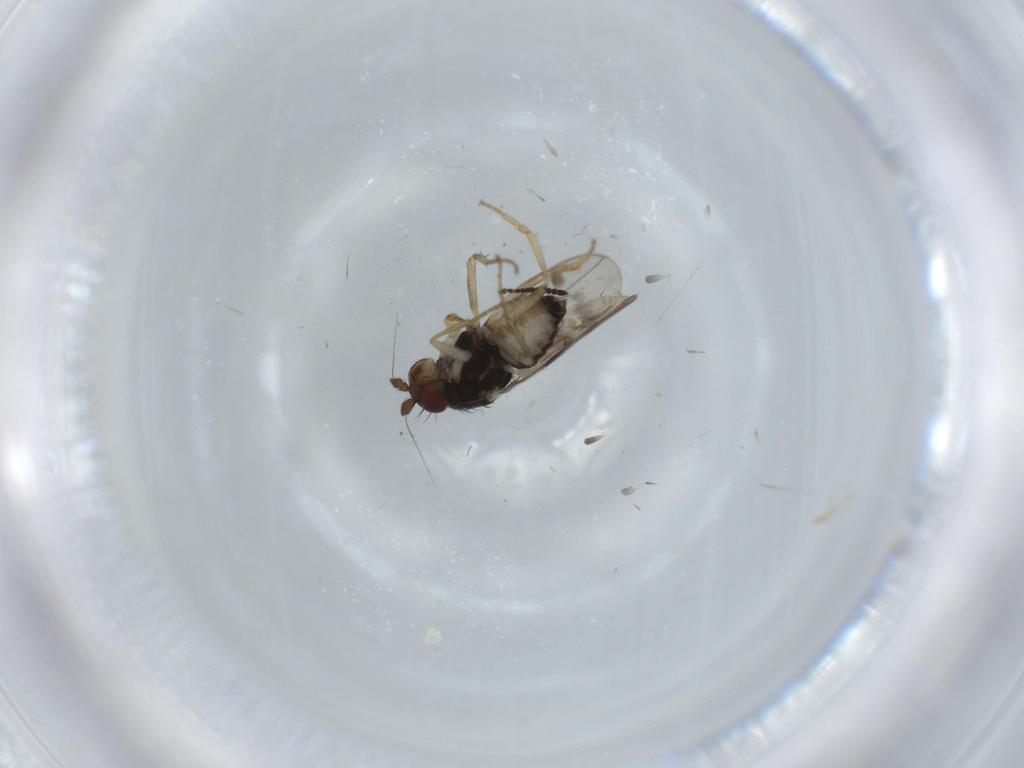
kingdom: Animalia
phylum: Arthropoda
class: Insecta
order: Diptera
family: Sphaeroceridae
